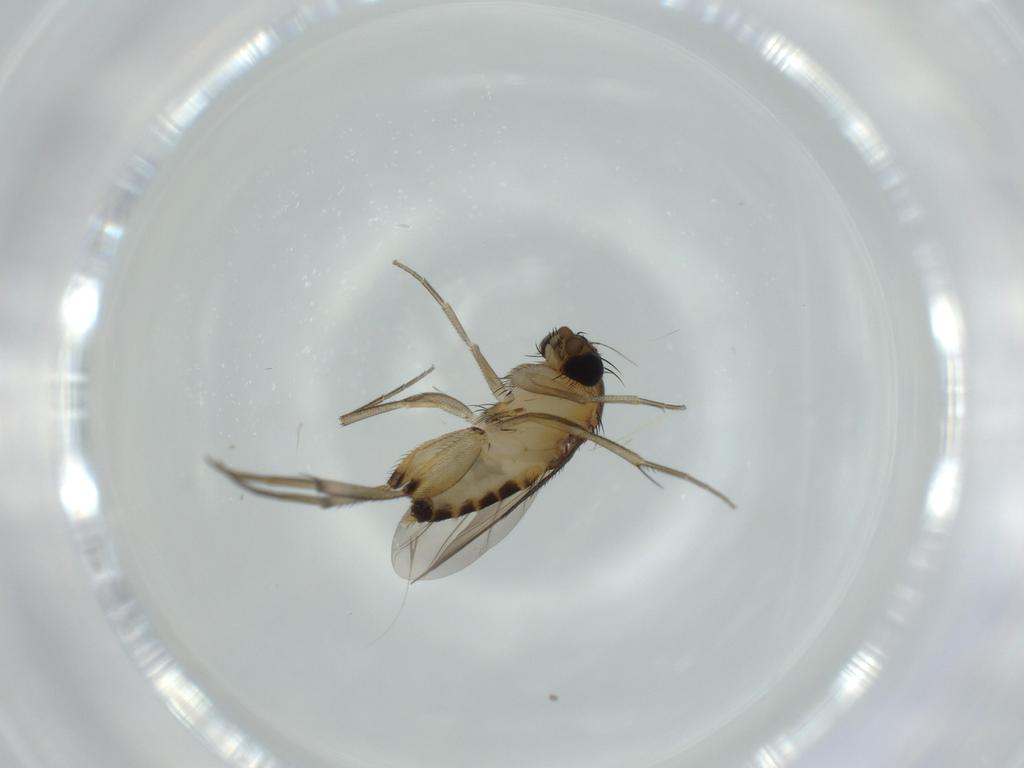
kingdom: Animalia
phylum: Arthropoda
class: Insecta
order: Diptera
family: Phoridae
